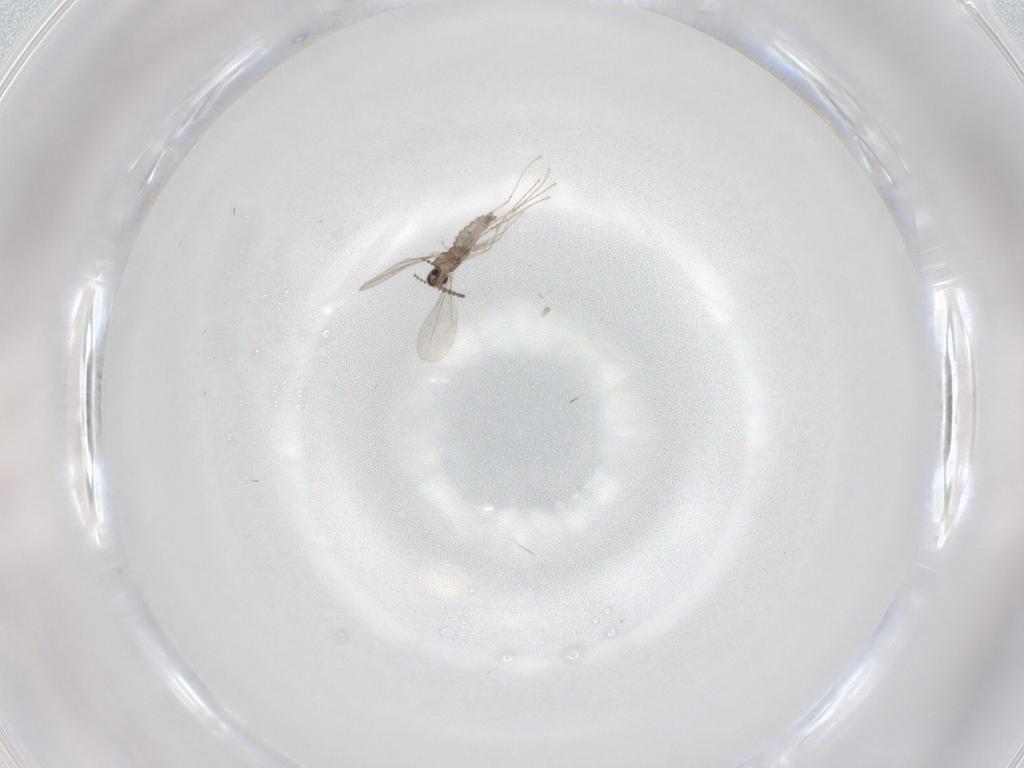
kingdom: Animalia
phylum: Arthropoda
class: Insecta
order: Diptera
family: Cecidomyiidae
